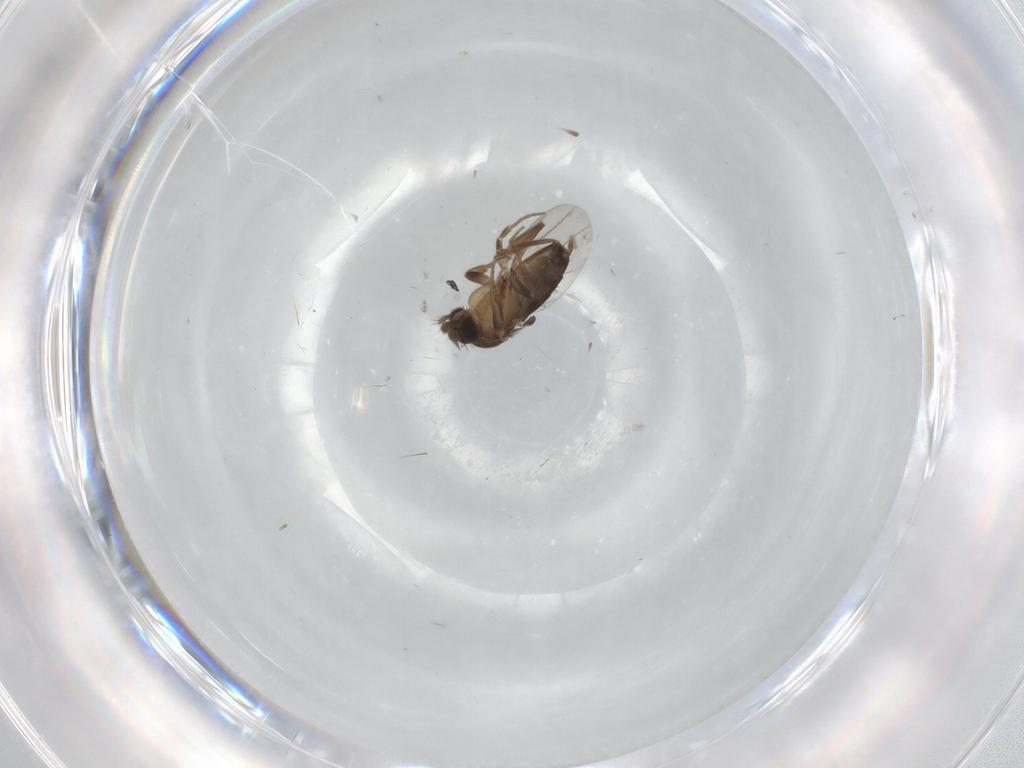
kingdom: Animalia
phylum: Arthropoda
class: Insecta
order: Diptera
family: Phoridae
